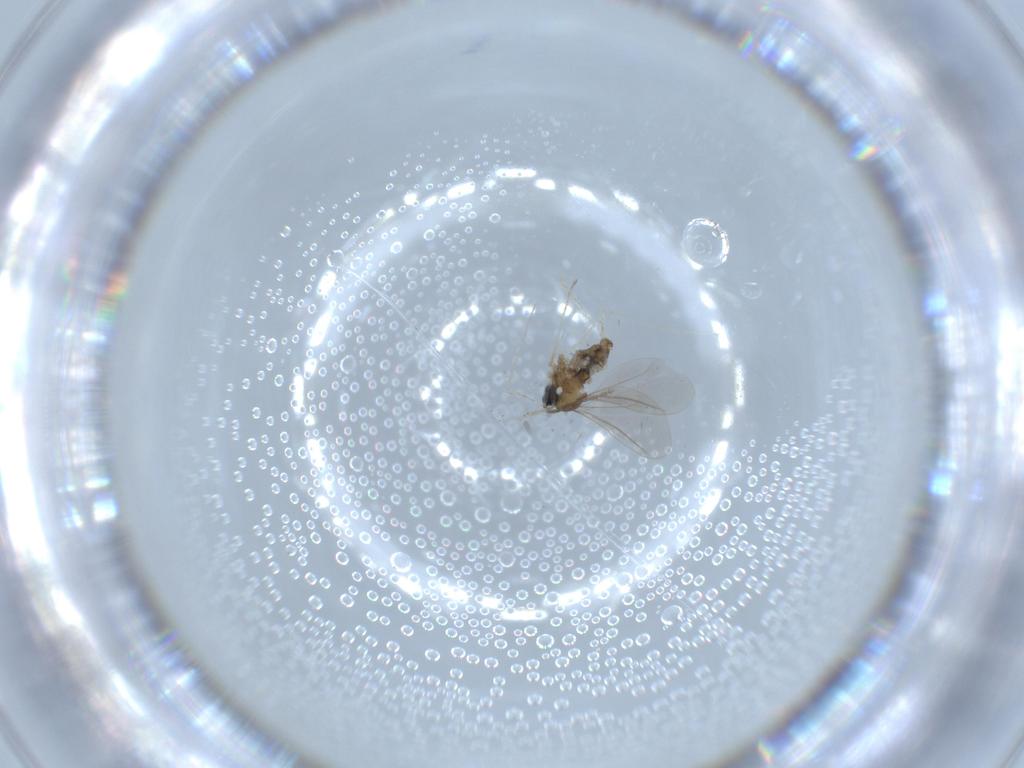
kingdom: Animalia
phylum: Arthropoda
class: Insecta
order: Diptera
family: Cecidomyiidae
